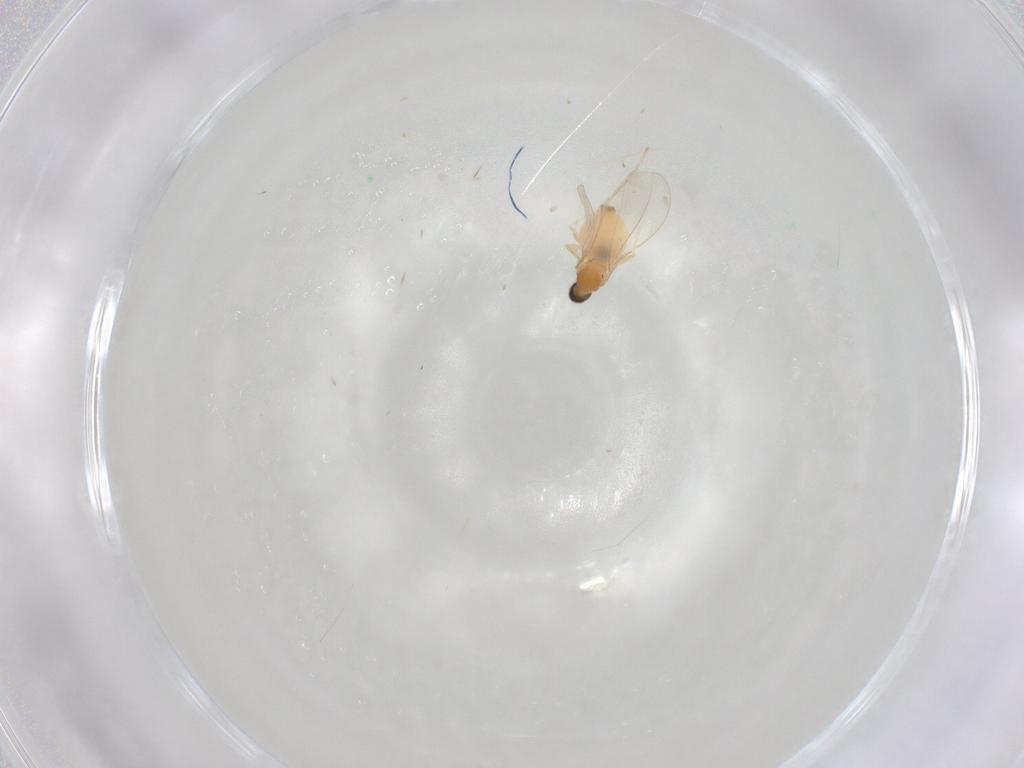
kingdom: Animalia
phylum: Arthropoda
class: Insecta
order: Diptera
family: Cecidomyiidae
